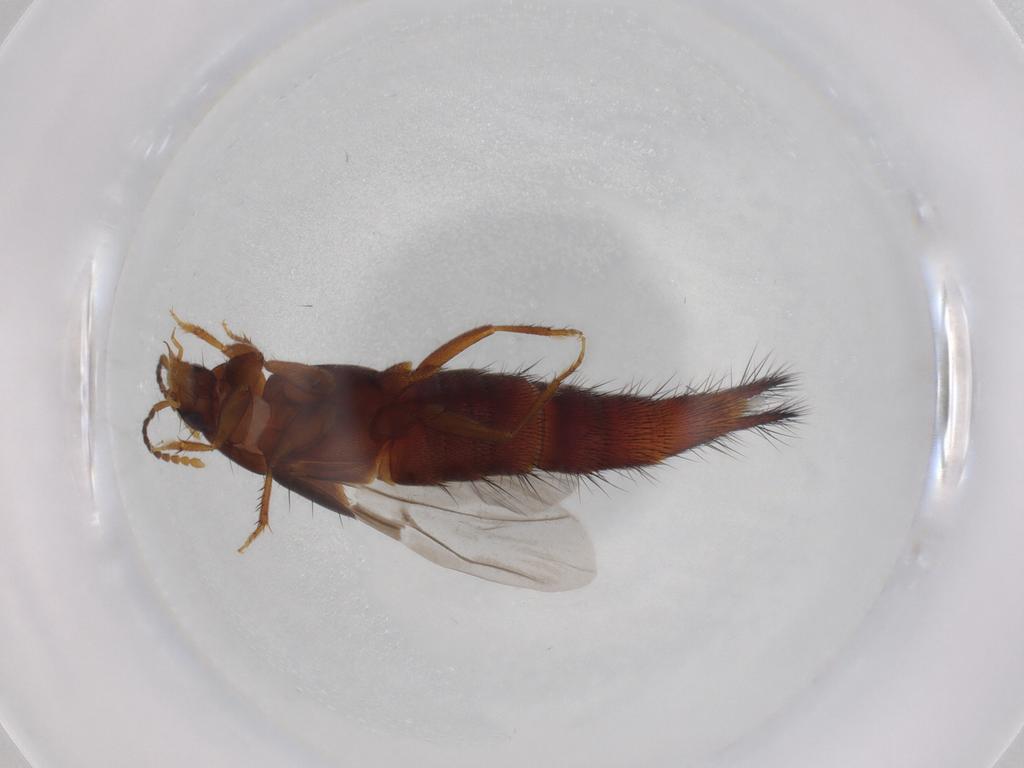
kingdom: Animalia
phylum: Arthropoda
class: Insecta
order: Coleoptera
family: Staphylinidae
